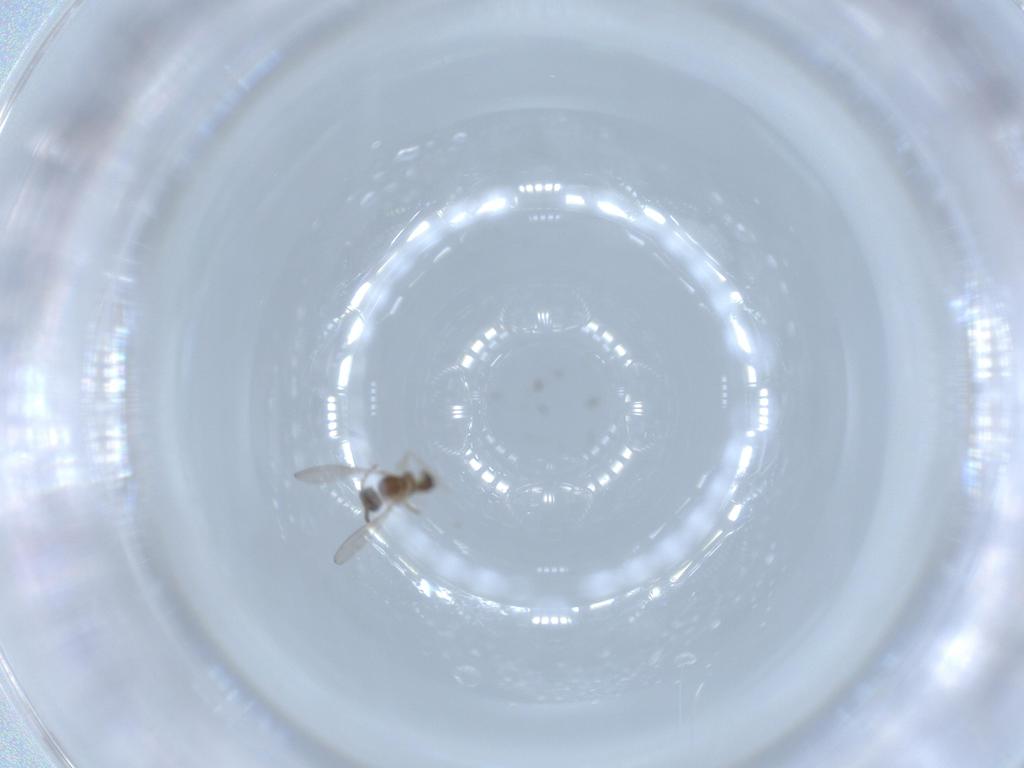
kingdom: Animalia
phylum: Arthropoda
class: Insecta
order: Diptera
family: Cecidomyiidae
